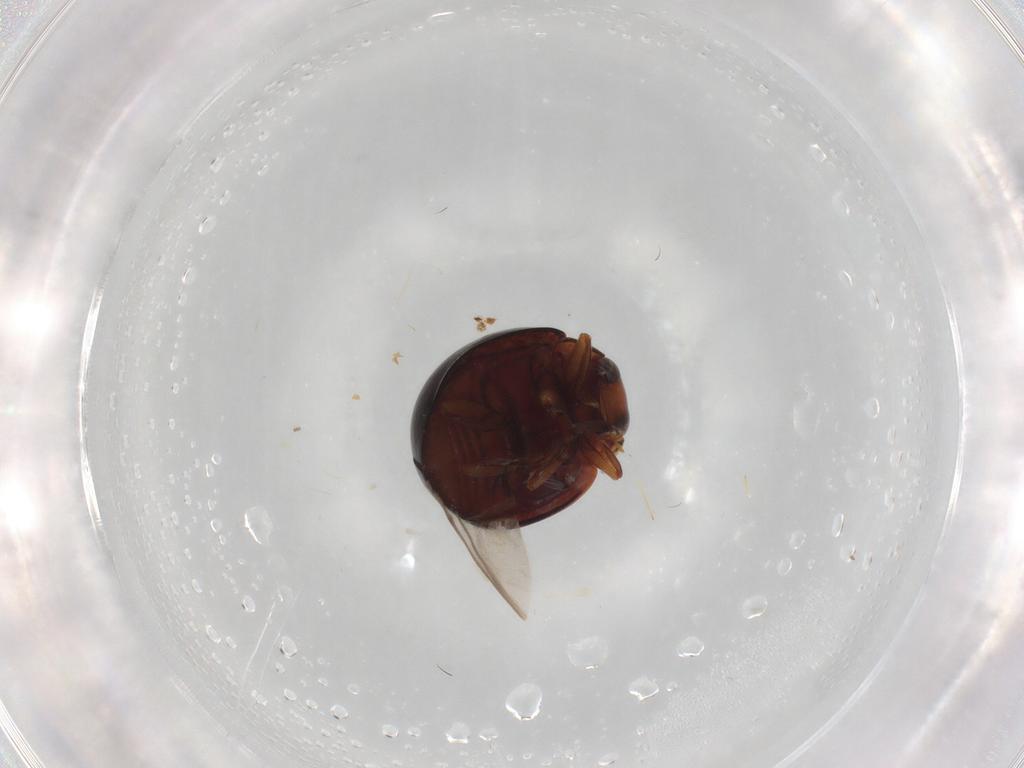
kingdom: Animalia
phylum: Arthropoda
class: Insecta
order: Coleoptera
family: Coccinellidae
